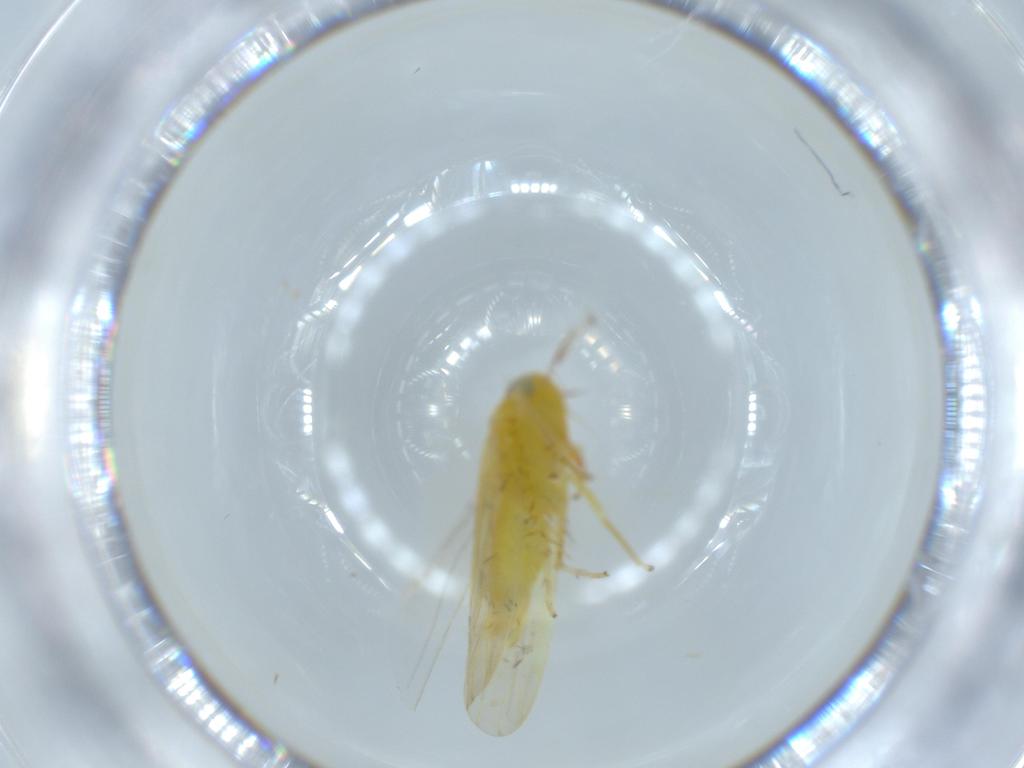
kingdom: Animalia
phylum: Arthropoda
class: Insecta
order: Hemiptera
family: Cicadellidae
